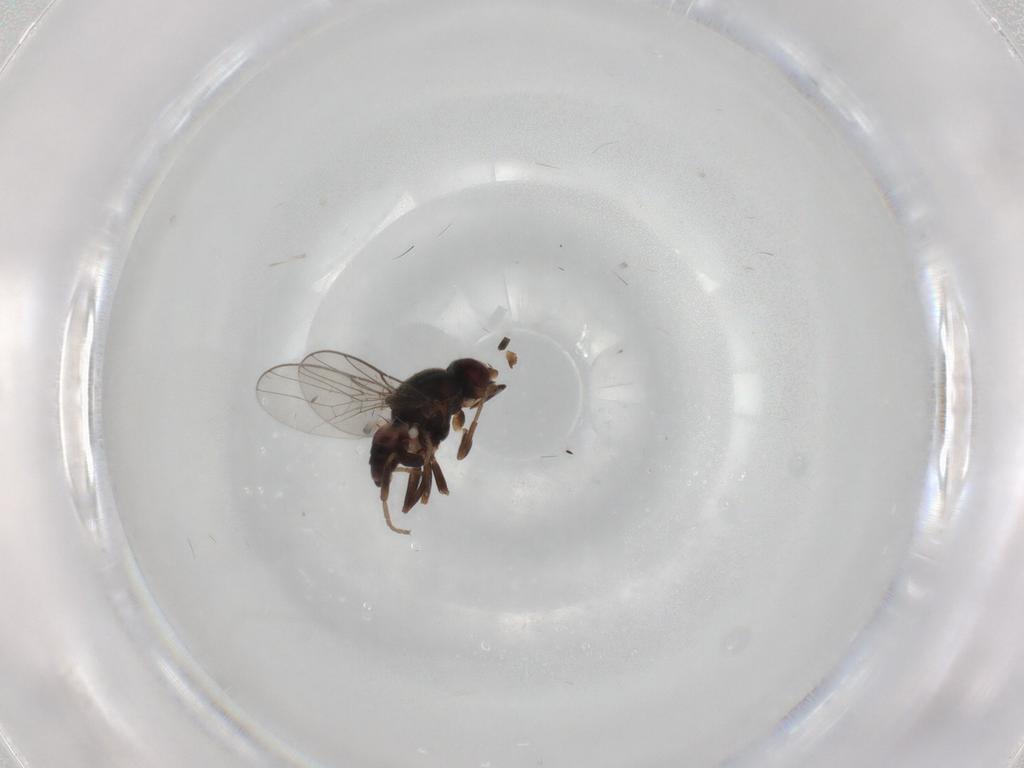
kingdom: Animalia
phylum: Arthropoda
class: Insecta
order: Diptera
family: Chloropidae
